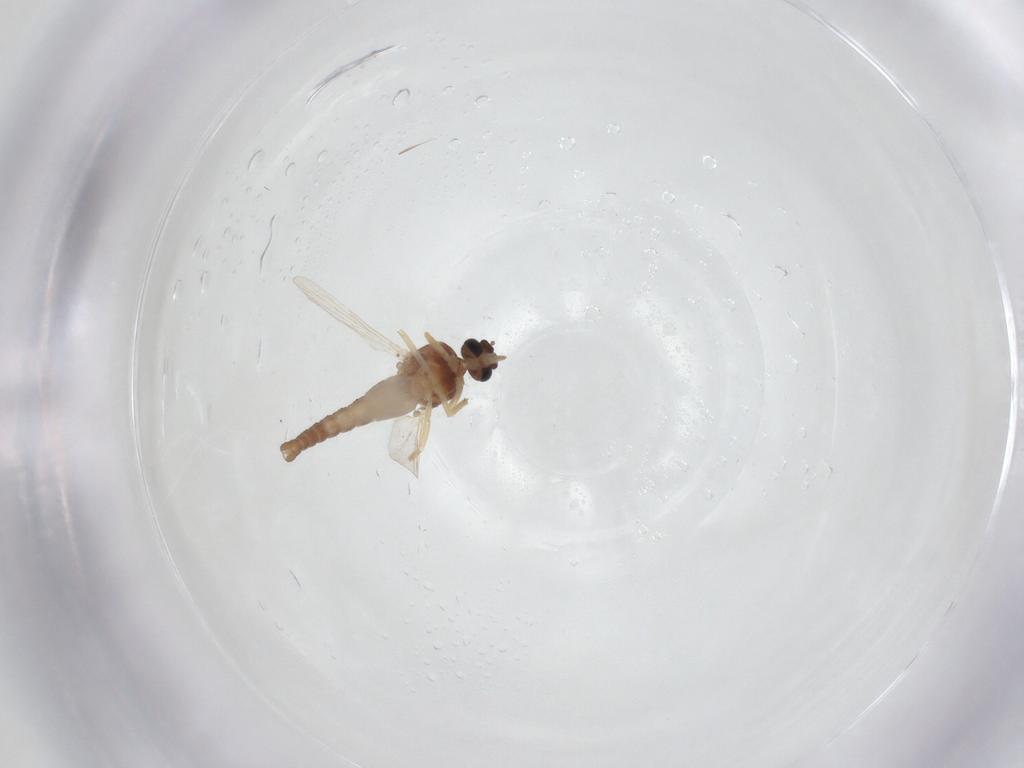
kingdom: Animalia
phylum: Arthropoda
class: Insecta
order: Diptera
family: Ceratopogonidae
